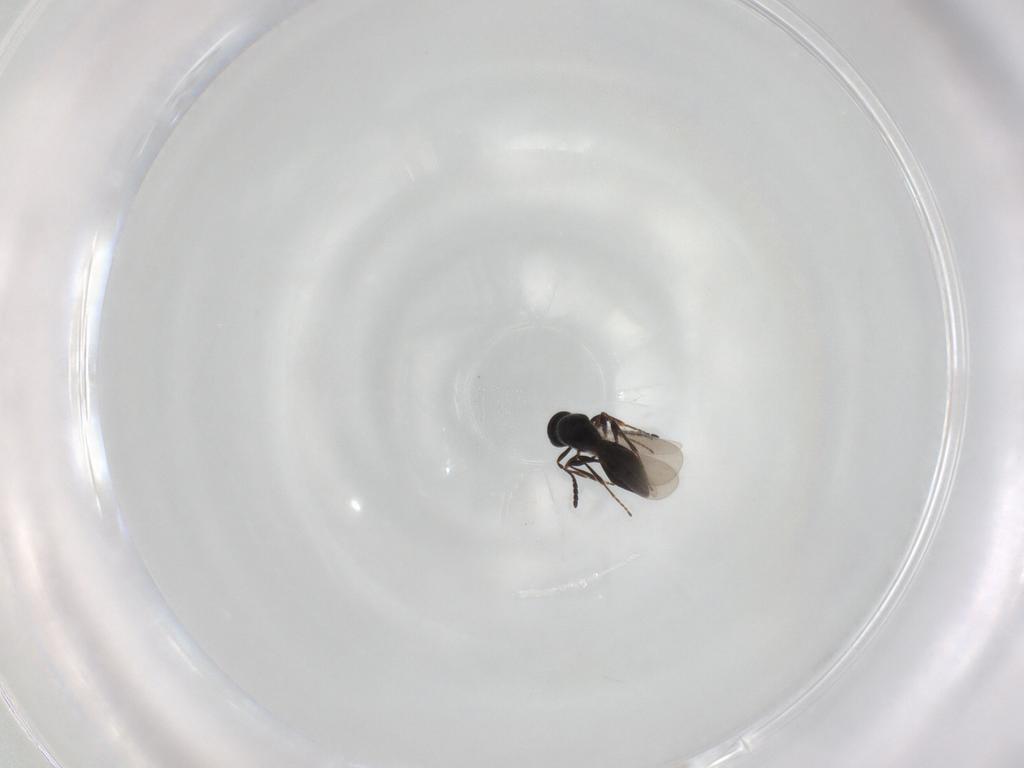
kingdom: Animalia
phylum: Arthropoda
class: Insecta
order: Hymenoptera
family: Platygastridae
